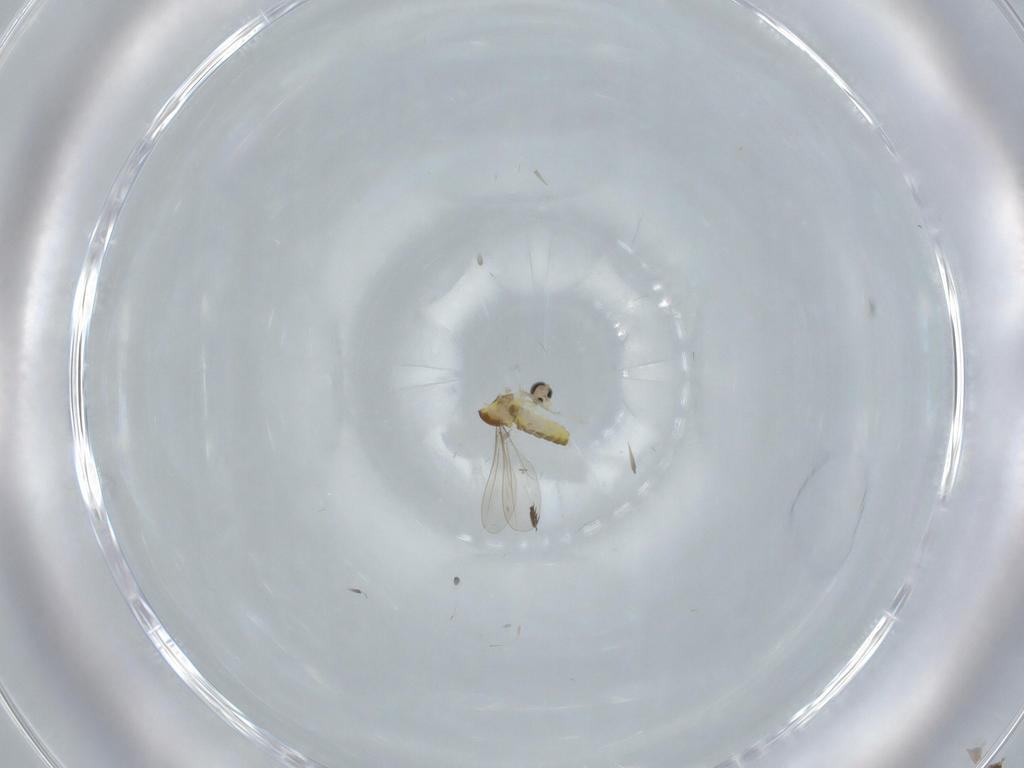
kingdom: Animalia
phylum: Arthropoda
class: Insecta
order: Diptera
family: Cecidomyiidae
